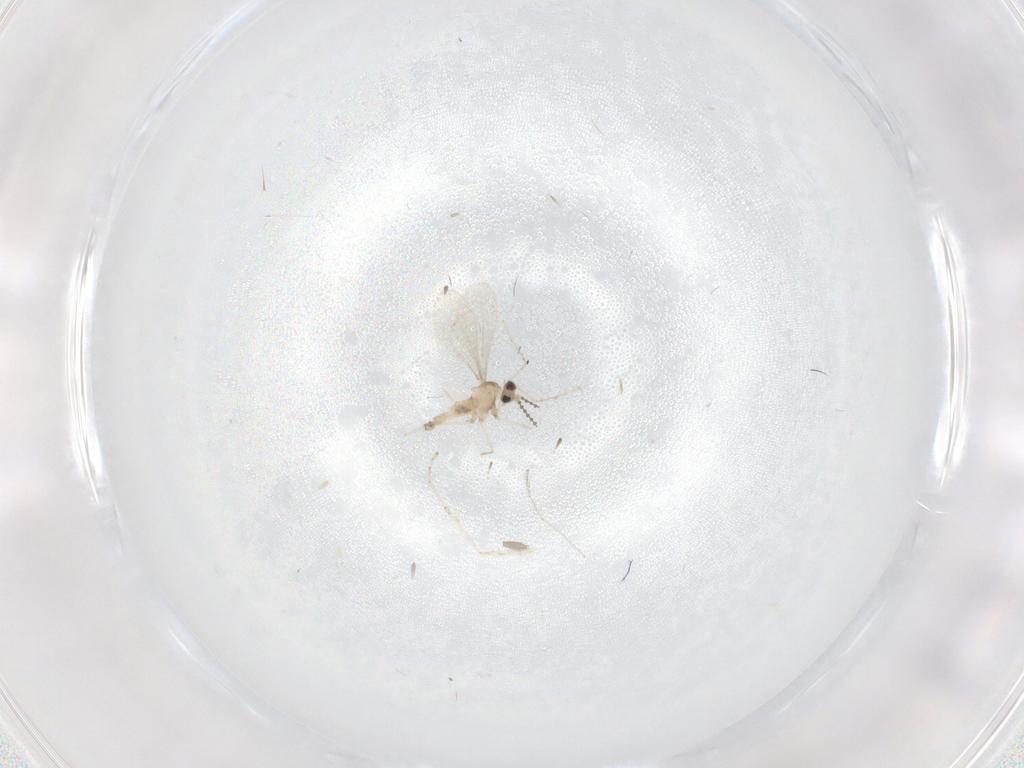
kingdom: Animalia
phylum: Arthropoda
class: Insecta
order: Diptera
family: Cecidomyiidae
